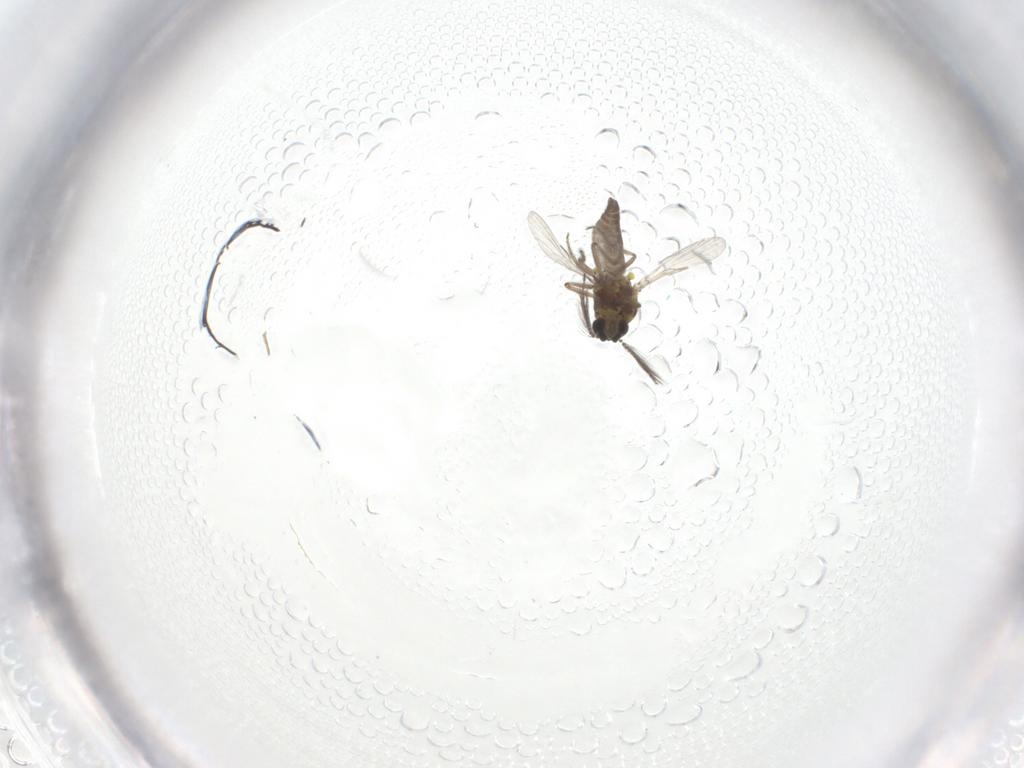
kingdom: Animalia
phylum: Arthropoda
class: Insecta
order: Diptera
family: Cecidomyiidae
